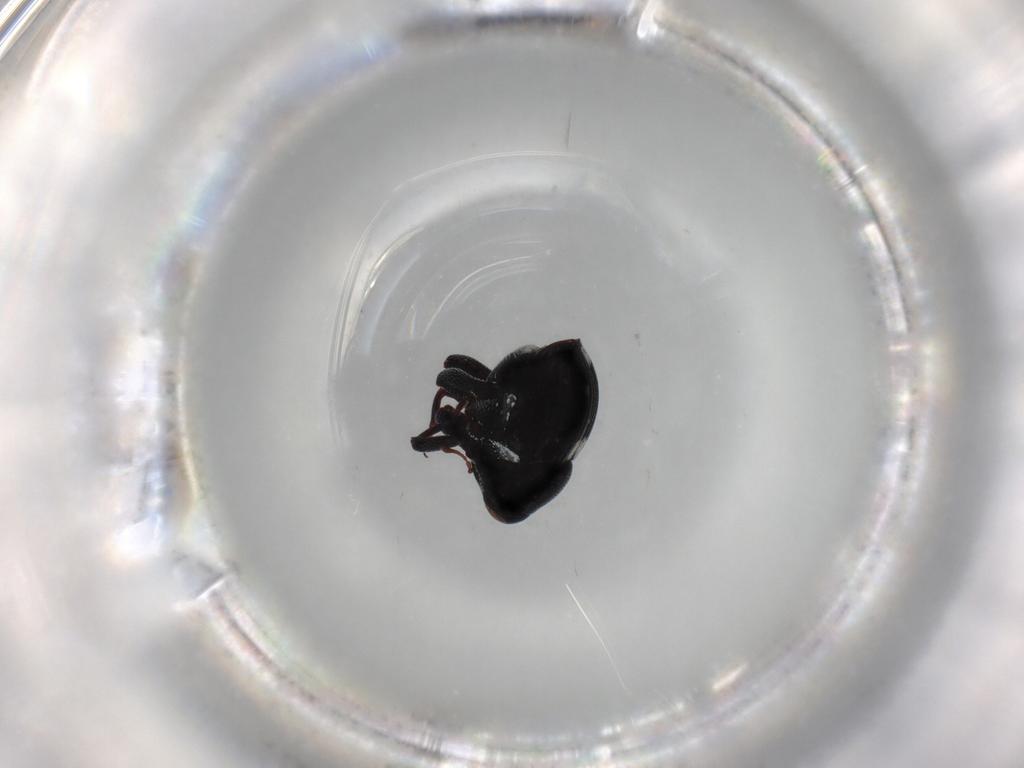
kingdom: Animalia
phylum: Arthropoda
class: Insecta
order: Coleoptera
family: Curculionidae
